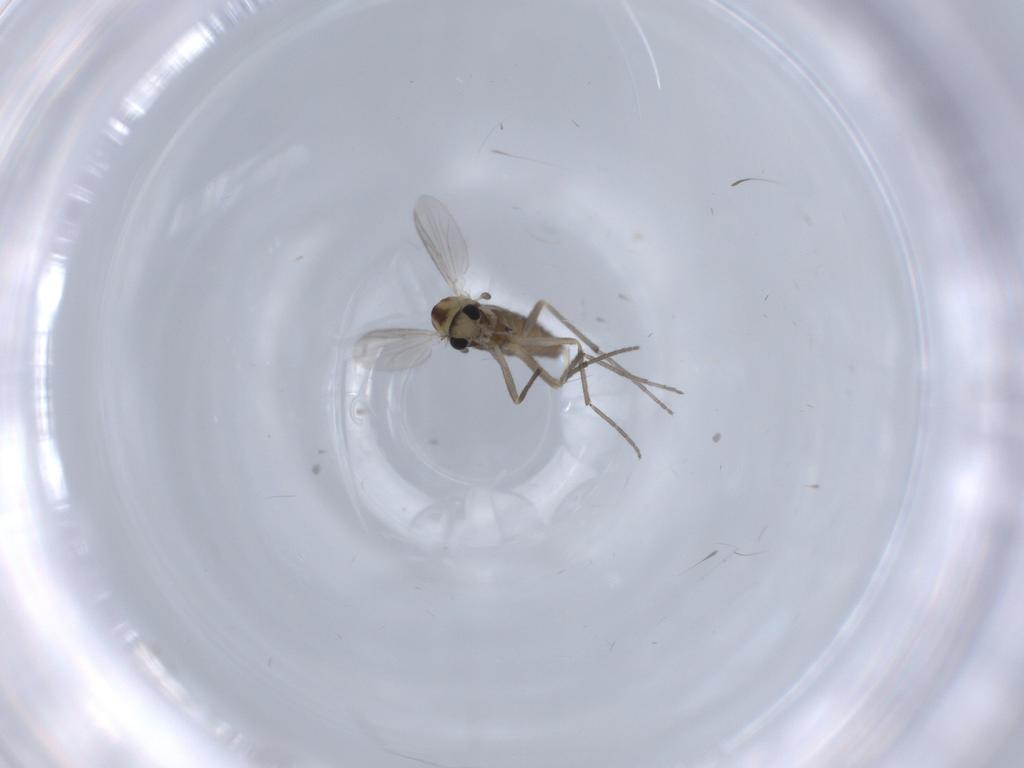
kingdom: Animalia
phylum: Arthropoda
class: Insecta
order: Diptera
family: Chironomidae
